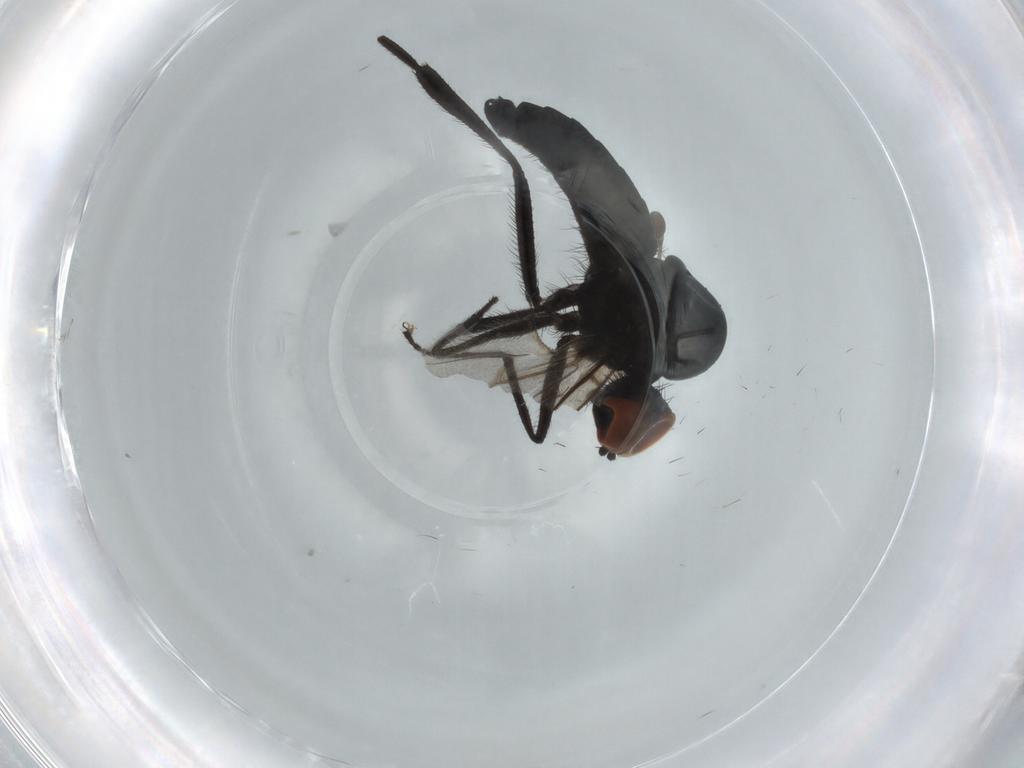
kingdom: Animalia
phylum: Arthropoda
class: Insecta
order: Diptera
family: Hybotidae
